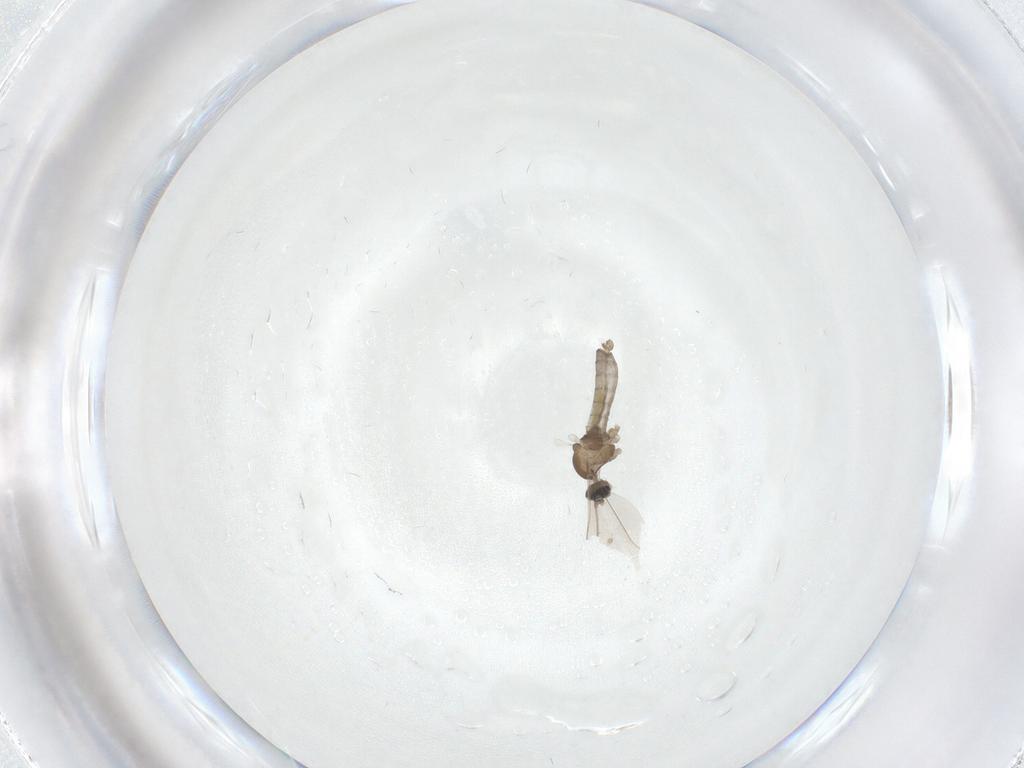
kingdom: Animalia
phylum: Arthropoda
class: Insecta
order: Diptera
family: Cecidomyiidae
